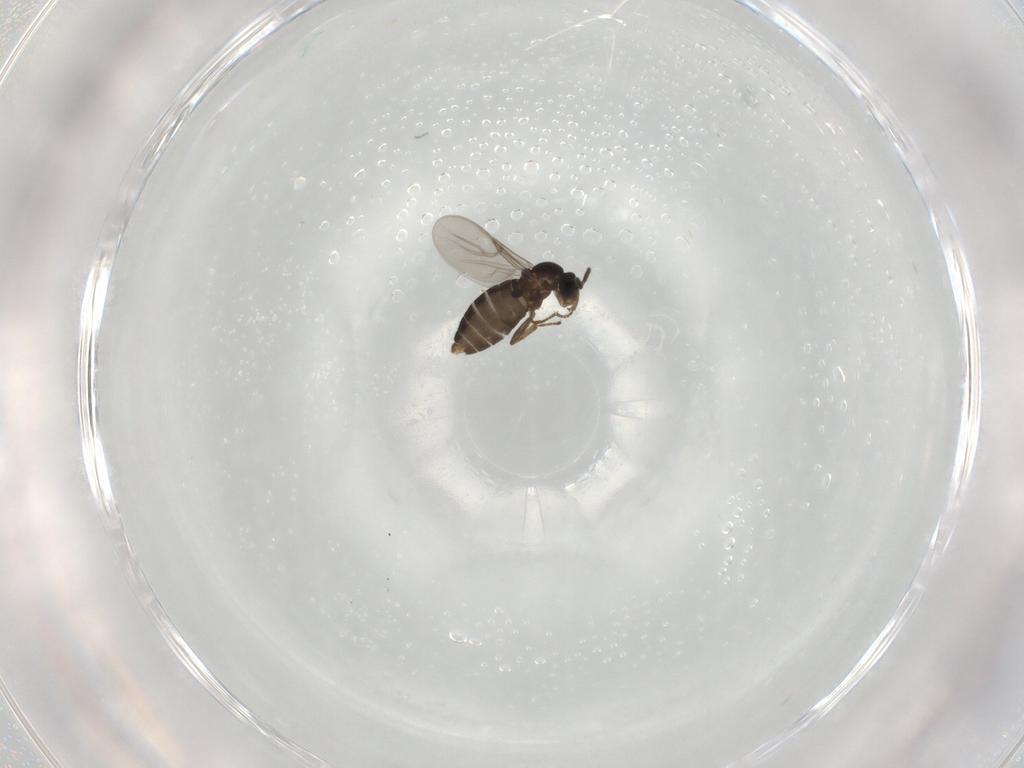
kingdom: Animalia
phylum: Arthropoda
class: Insecta
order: Diptera
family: Scatopsidae
